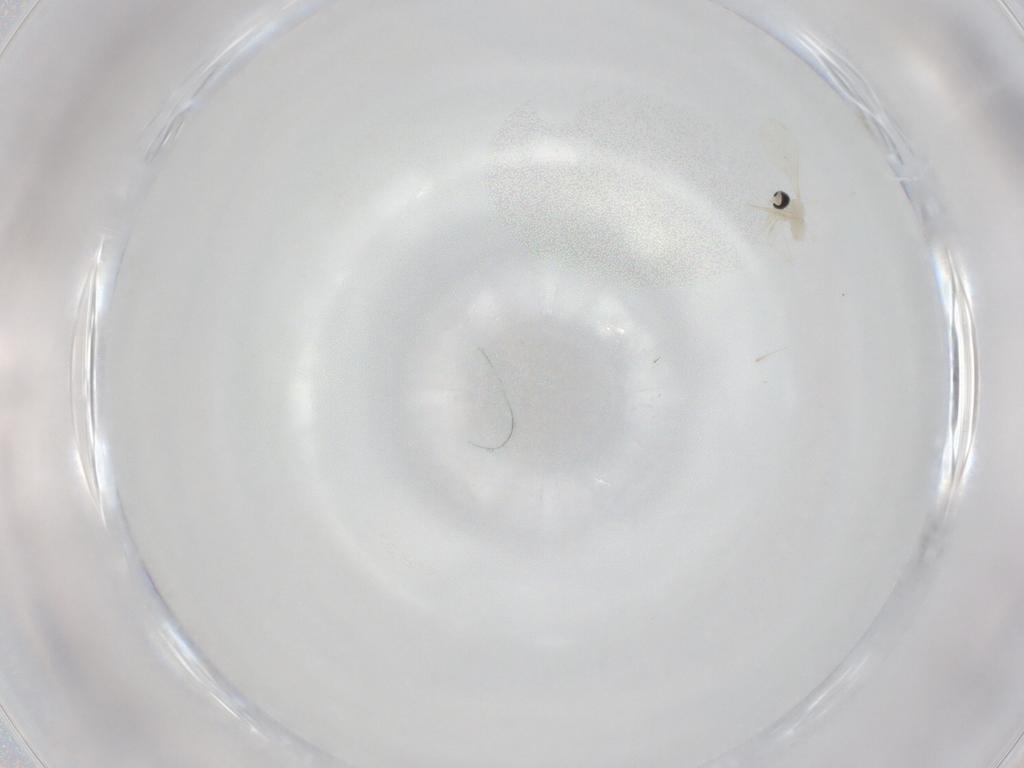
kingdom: Animalia
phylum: Arthropoda
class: Insecta
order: Diptera
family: Cecidomyiidae
